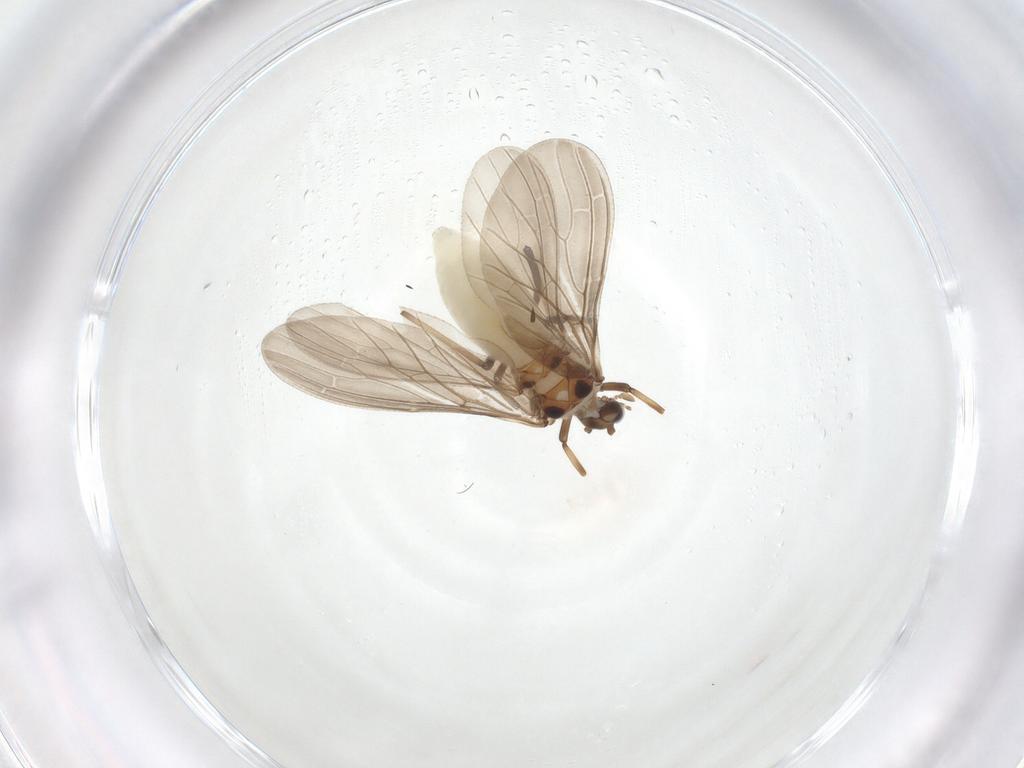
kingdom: Animalia
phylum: Arthropoda
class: Insecta
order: Neuroptera
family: Coniopterygidae
